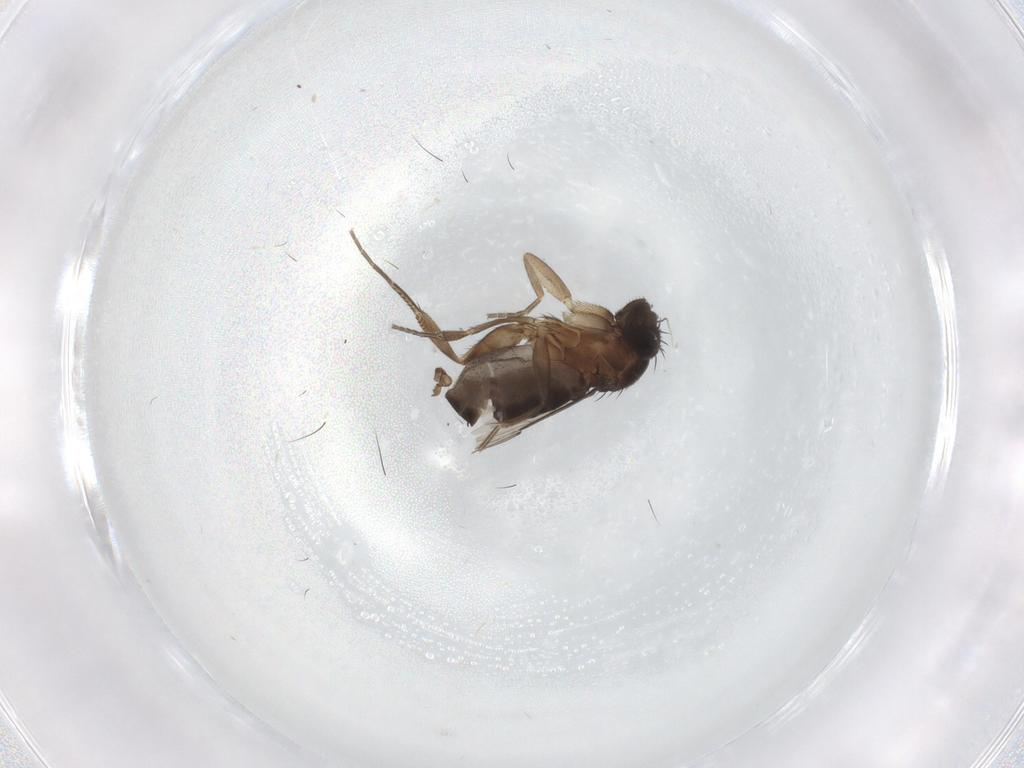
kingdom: Animalia
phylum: Arthropoda
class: Insecta
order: Diptera
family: Phoridae
